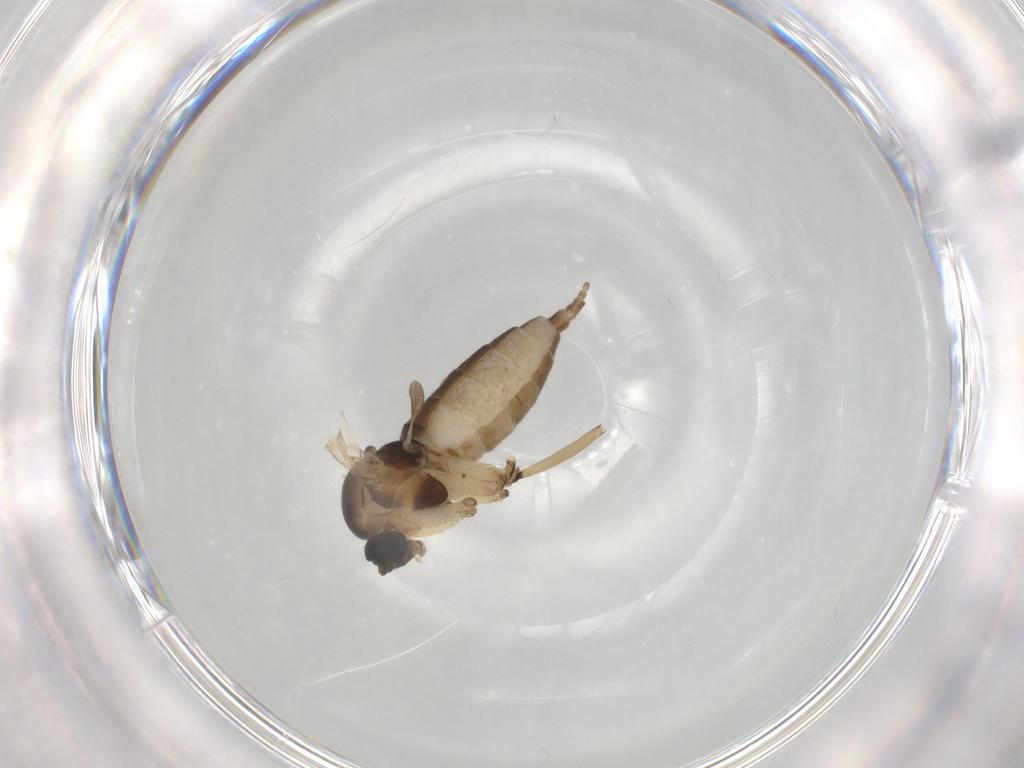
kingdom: Animalia
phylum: Arthropoda
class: Insecta
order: Diptera
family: Sciaridae
